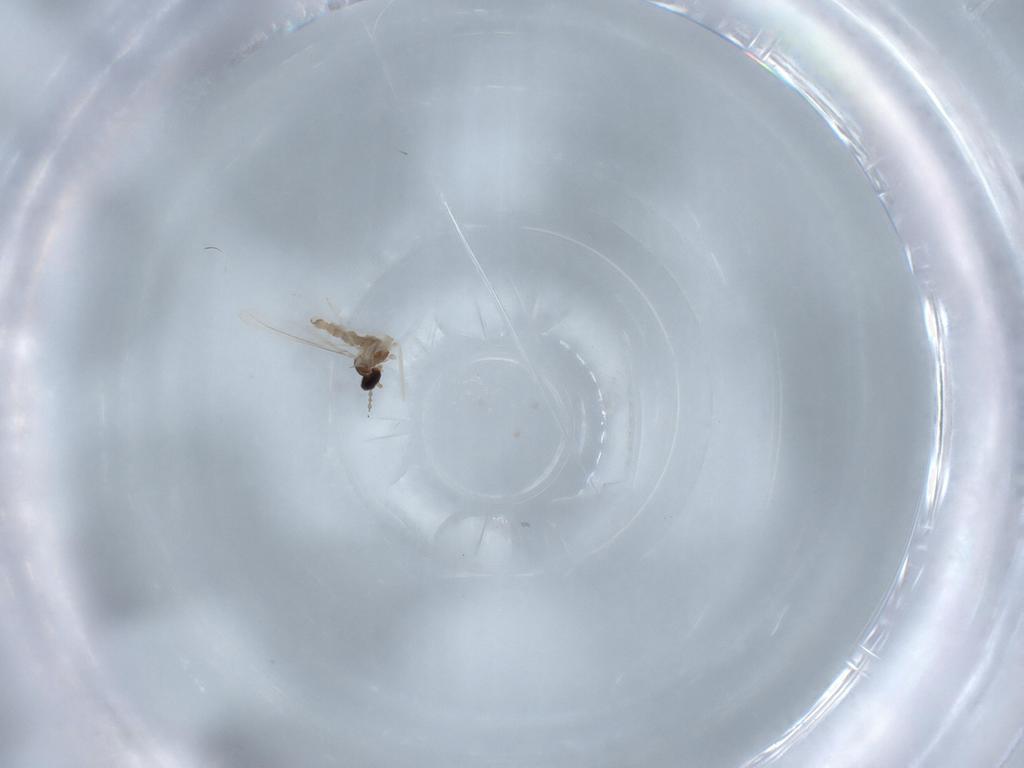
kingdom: Animalia
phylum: Arthropoda
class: Insecta
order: Diptera
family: Cecidomyiidae
